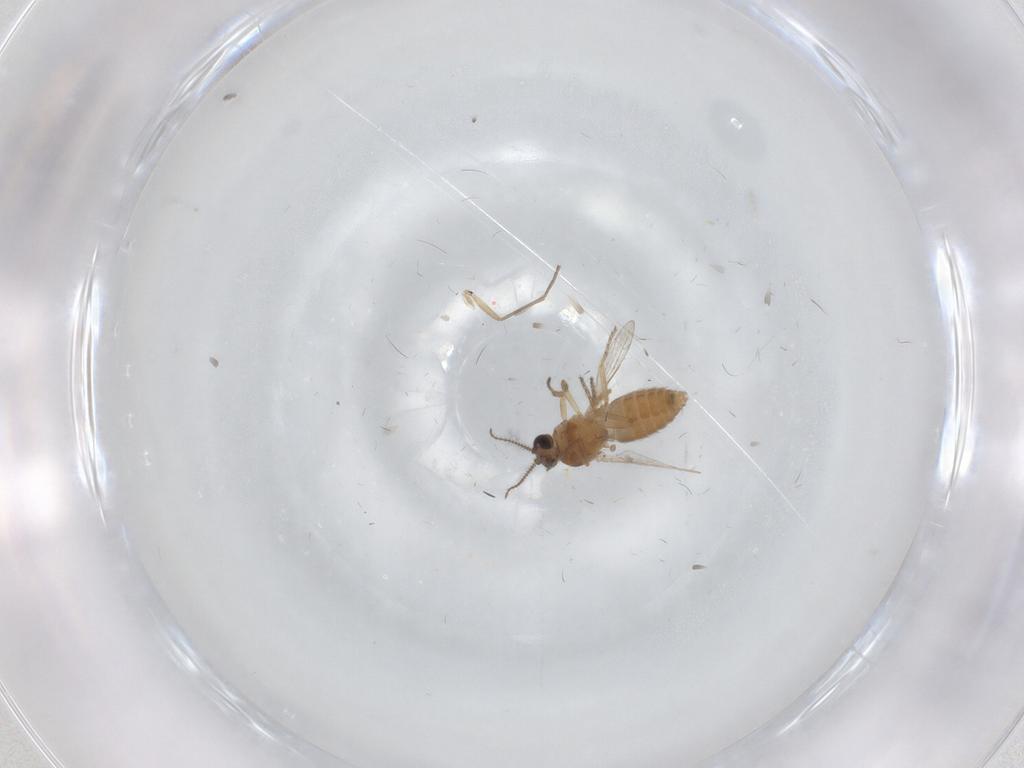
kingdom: Animalia
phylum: Arthropoda
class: Insecta
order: Diptera
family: Ceratopogonidae
